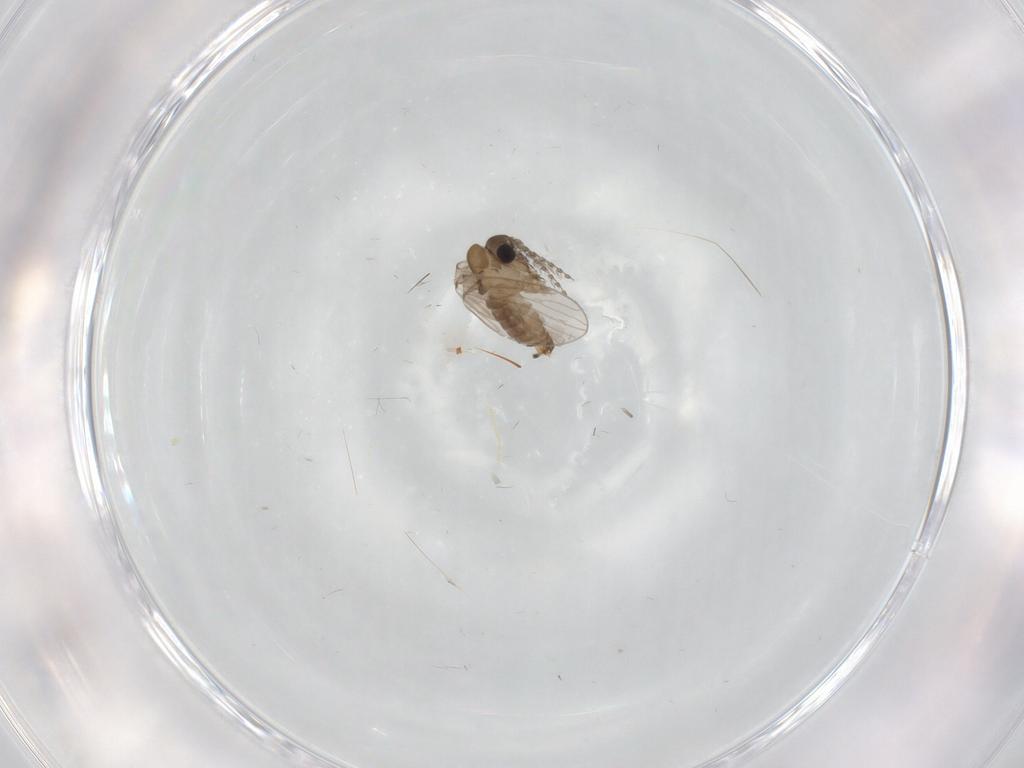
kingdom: Animalia
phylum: Arthropoda
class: Insecta
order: Diptera
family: Psychodidae
